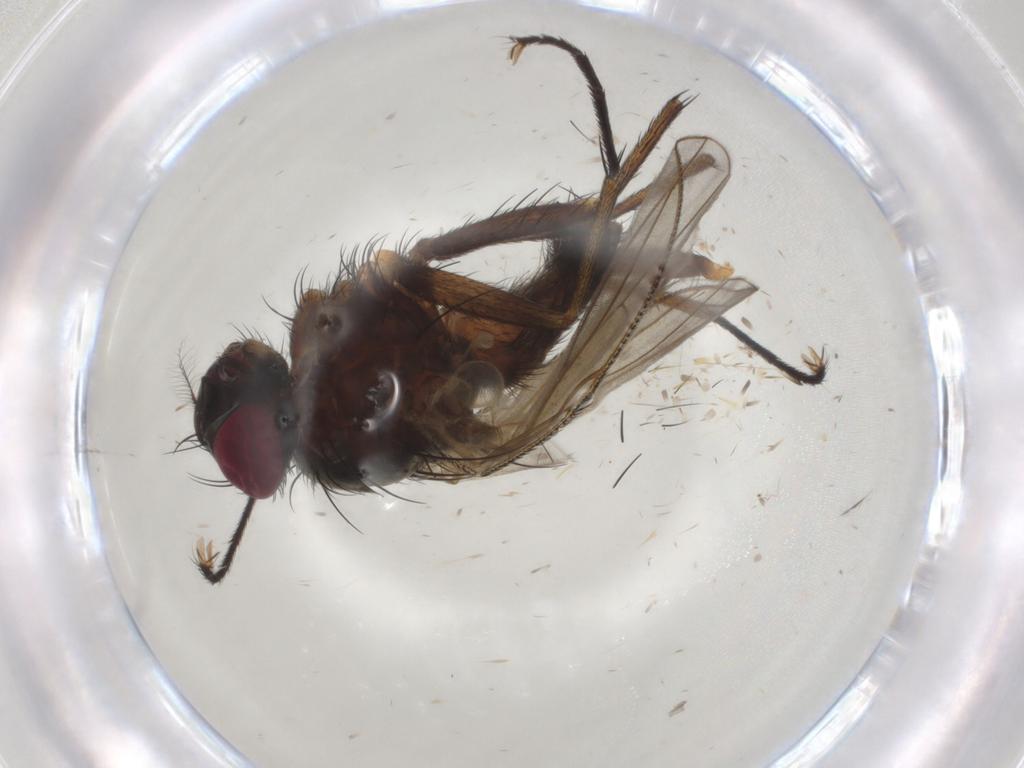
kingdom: Animalia
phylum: Arthropoda
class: Insecta
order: Diptera
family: Muscidae
